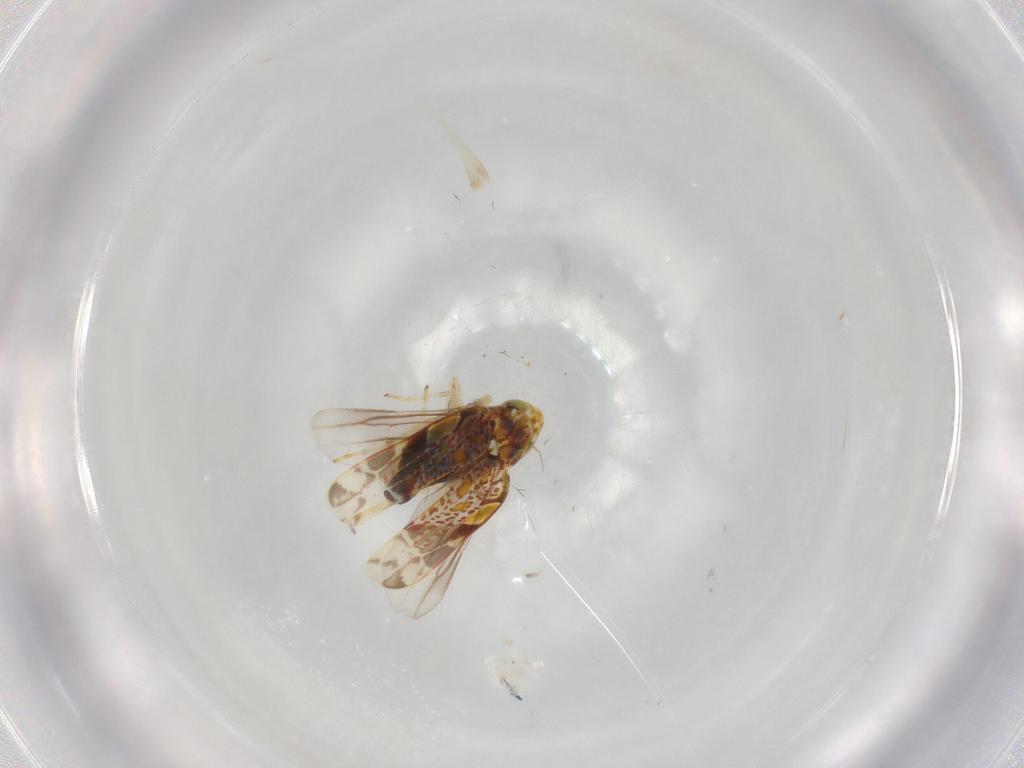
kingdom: Animalia
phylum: Arthropoda
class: Insecta
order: Hemiptera
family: Cicadellidae
